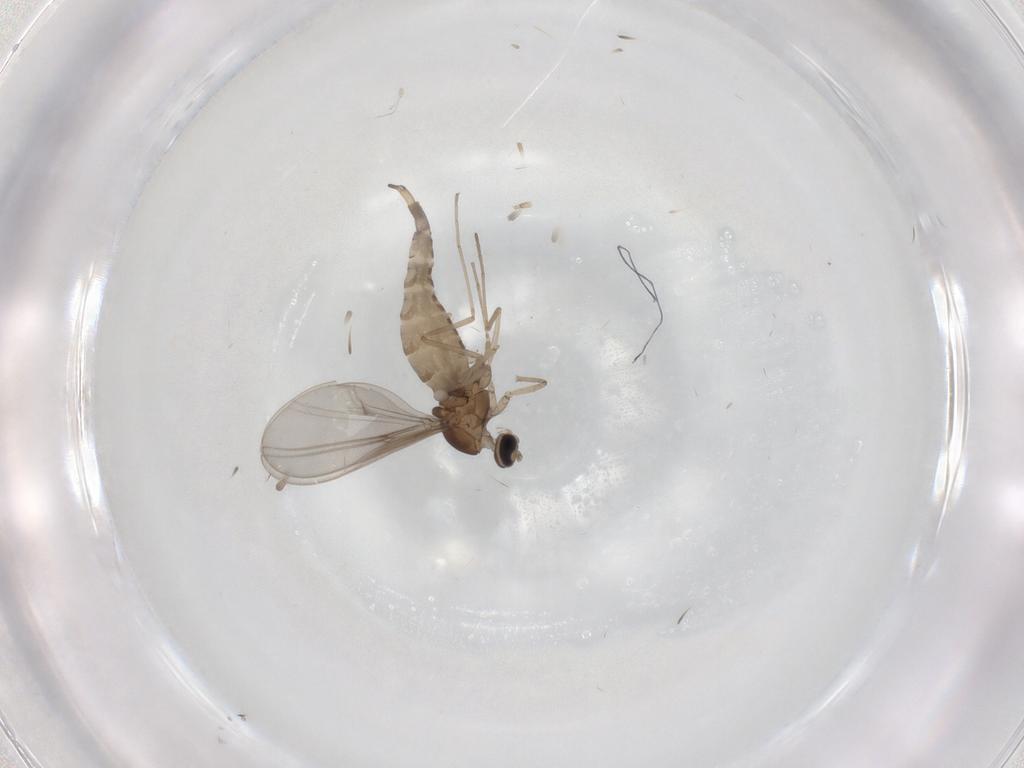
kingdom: Animalia
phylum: Arthropoda
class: Insecta
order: Diptera
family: Cecidomyiidae
